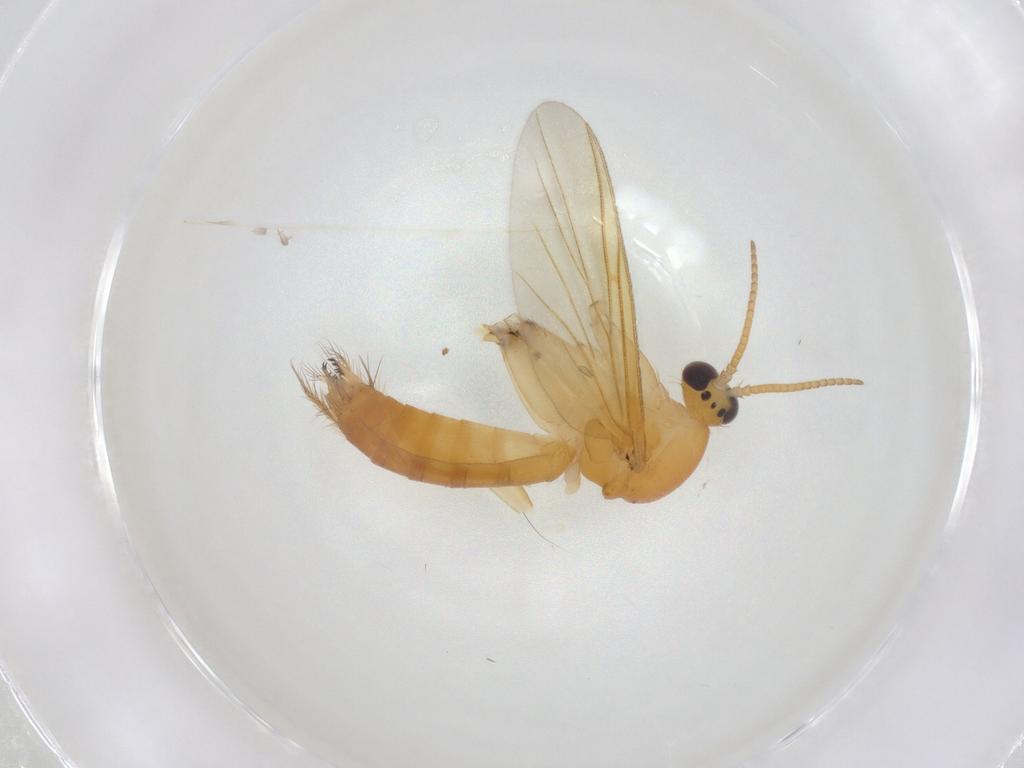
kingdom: Animalia
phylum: Arthropoda
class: Insecta
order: Diptera
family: Mycetophilidae
